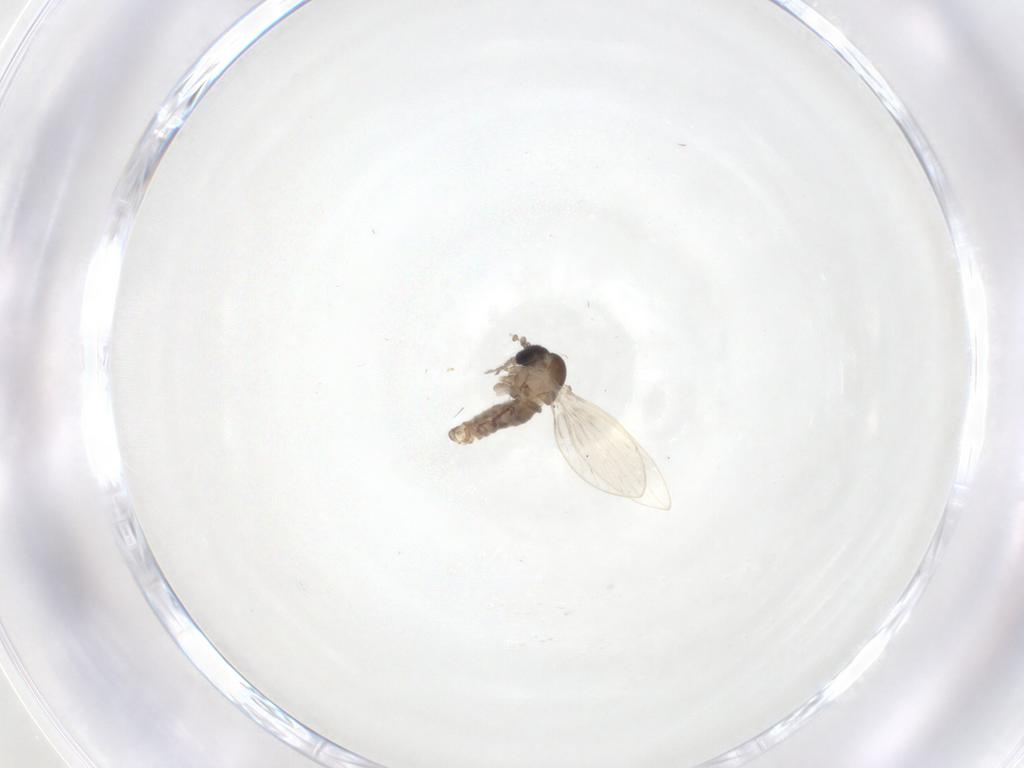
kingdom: Animalia
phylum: Arthropoda
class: Insecta
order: Diptera
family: Psychodidae
